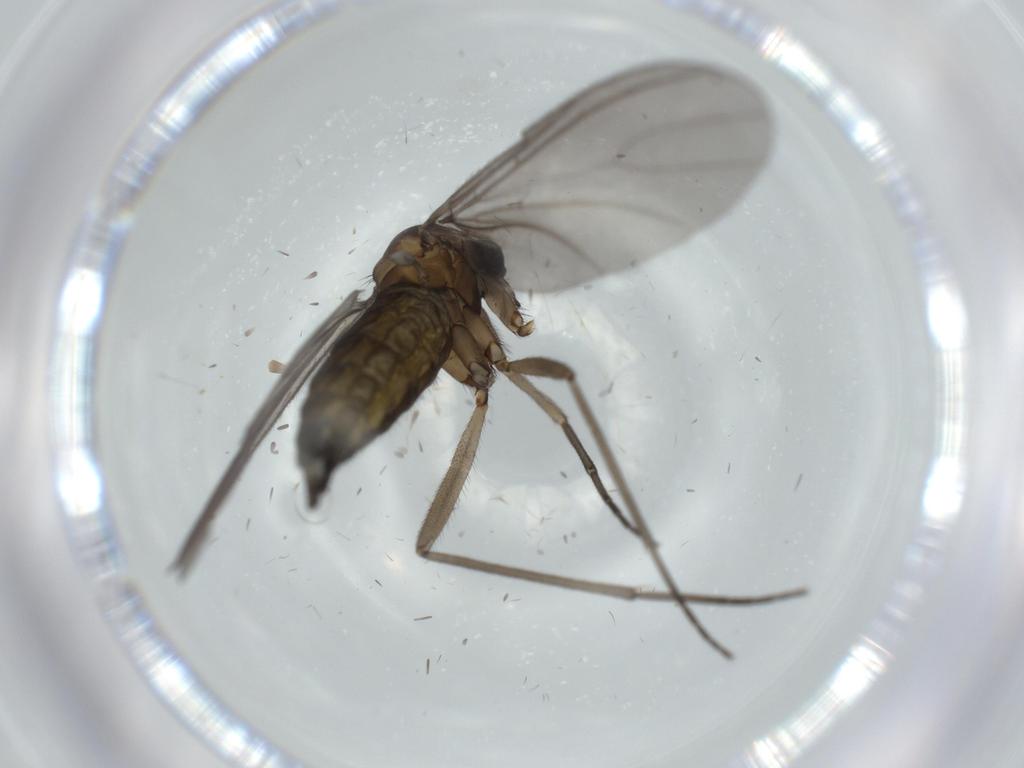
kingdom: Animalia
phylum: Arthropoda
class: Insecta
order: Diptera
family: Sciaridae
